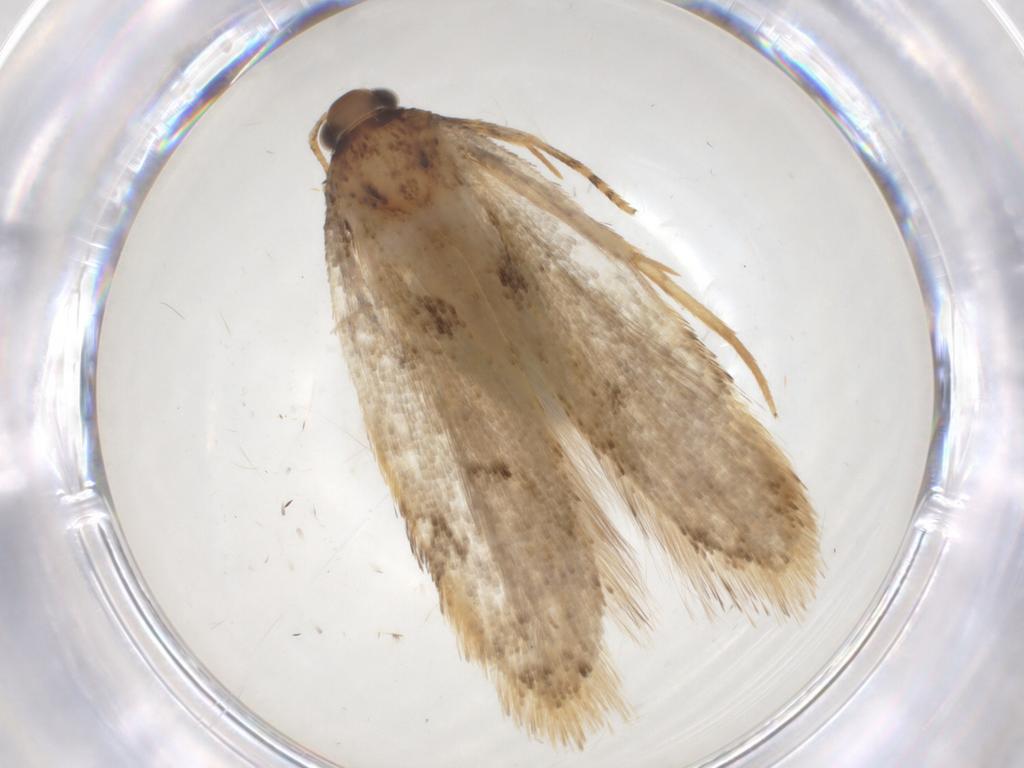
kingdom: Animalia
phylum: Arthropoda
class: Insecta
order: Lepidoptera
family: Gelechiidae
